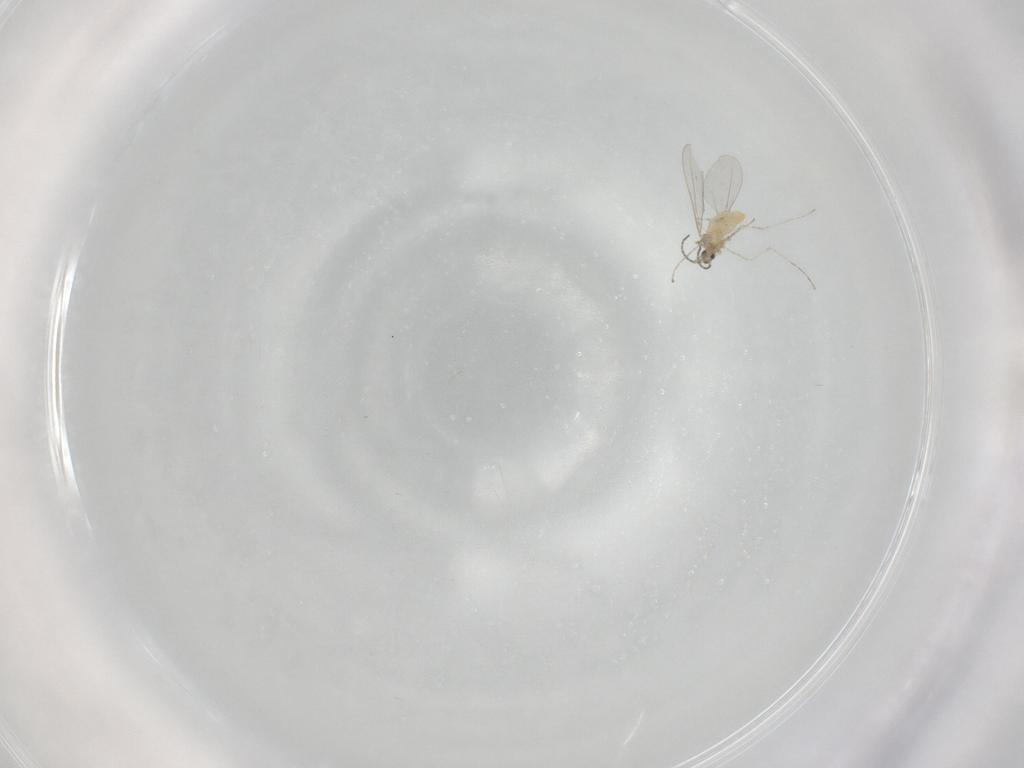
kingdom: Animalia
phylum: Arthropoda
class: Insecta
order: Diptera
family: Cecidomyiidae
